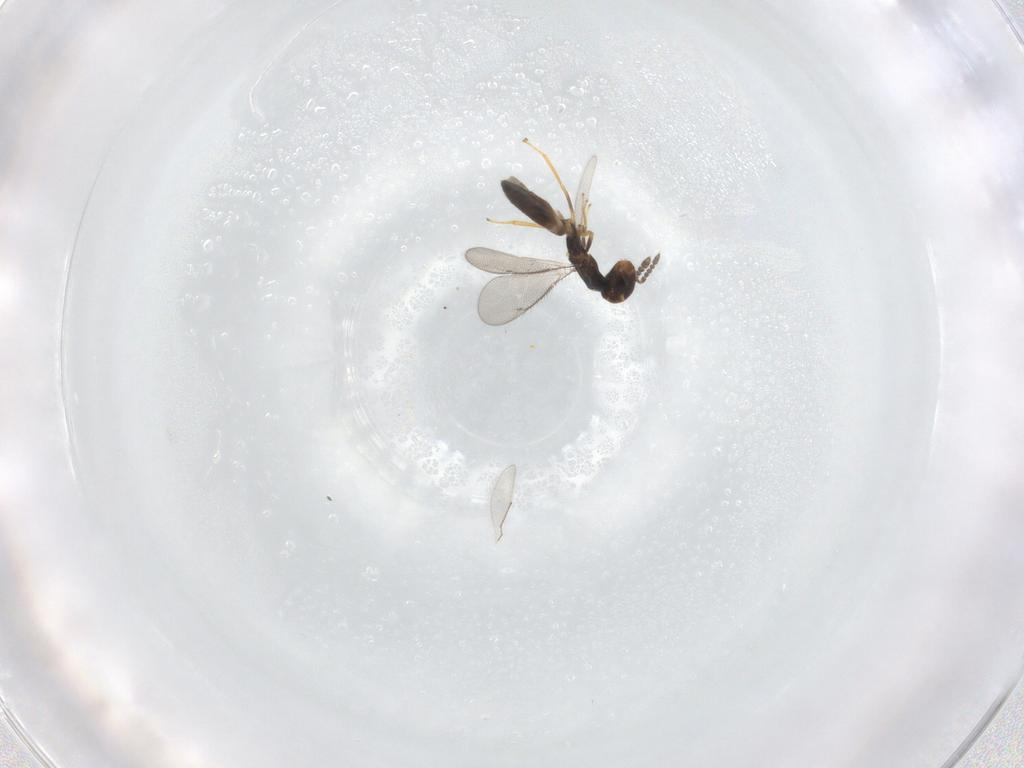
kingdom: Animalia
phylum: Arthropoda
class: Insecta
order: Hymenoptera
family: Eulophidae
